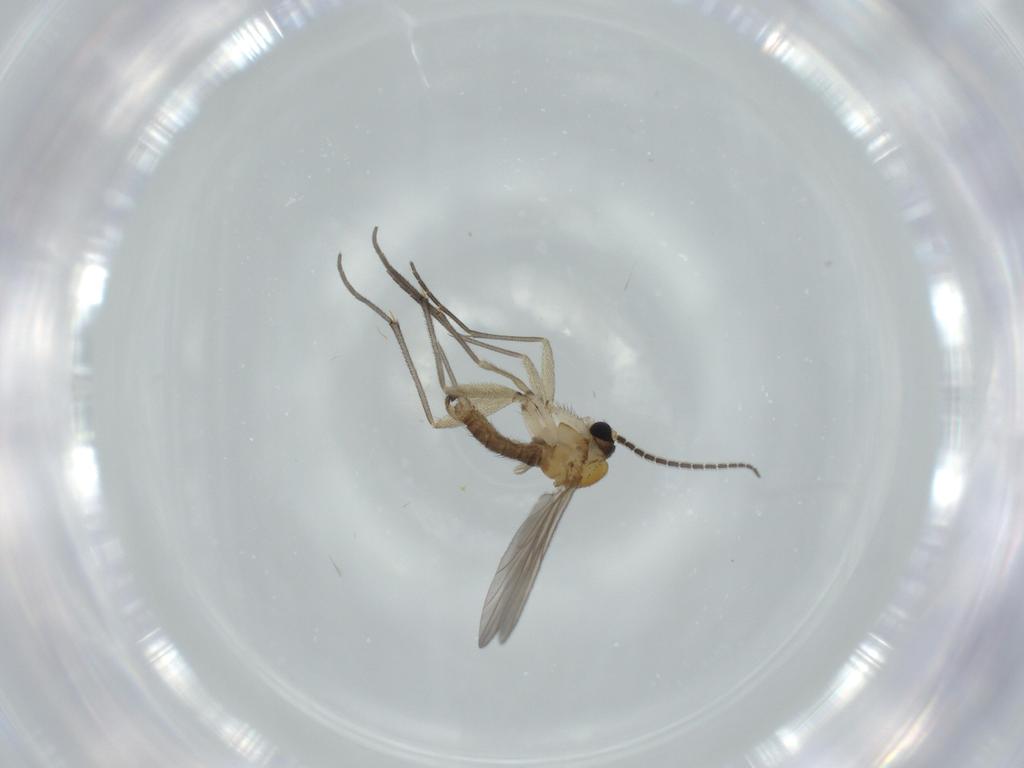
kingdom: Animalia
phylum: Arthropoda
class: Insecta
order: Diptera
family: Sciaridae
